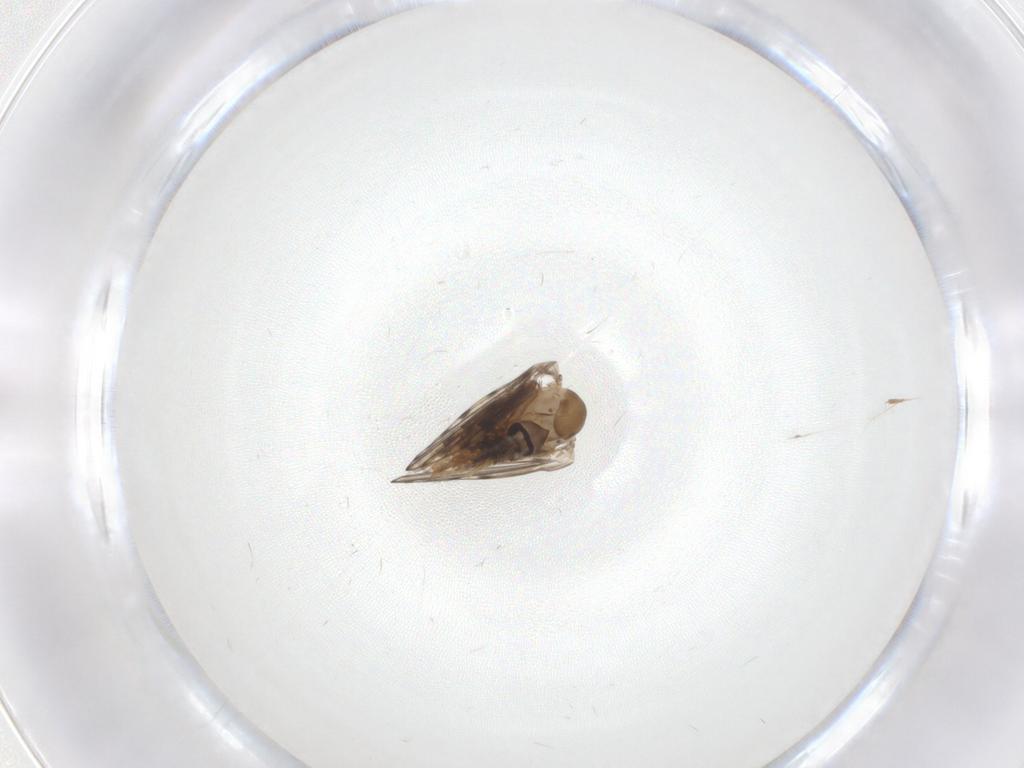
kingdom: Animalia
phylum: Arthropoda
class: Insecta
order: Diptera
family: Psychodidae
